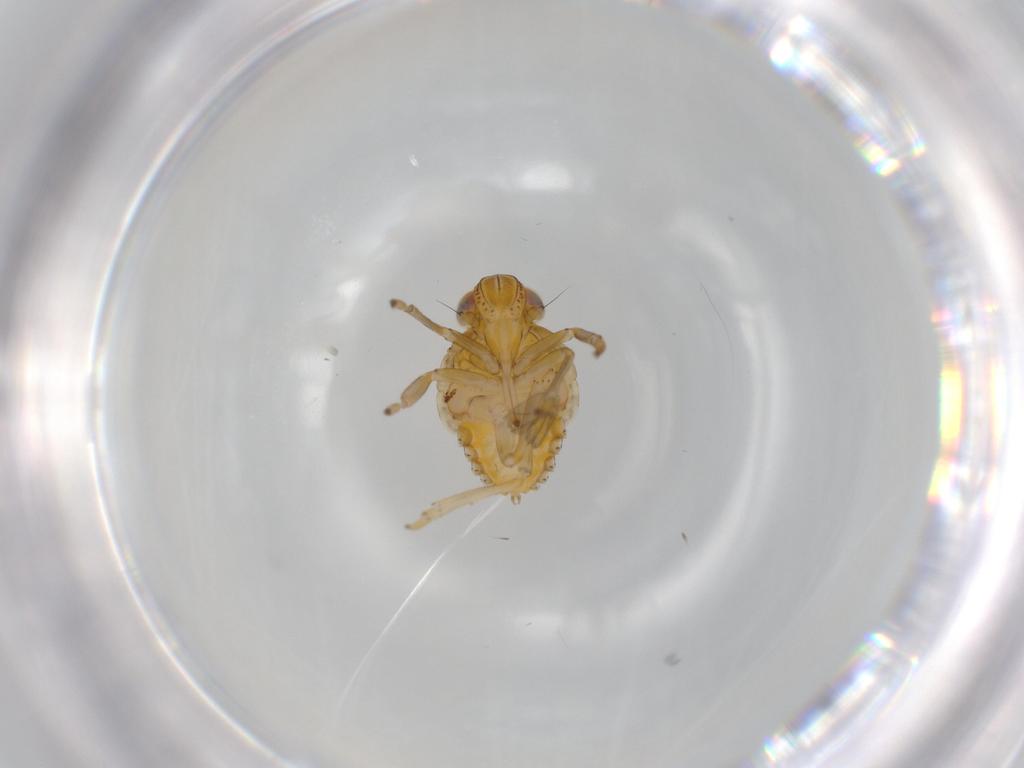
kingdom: Animalia
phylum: Arthropoda
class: Insecta
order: Hemiptera
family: Issidae
